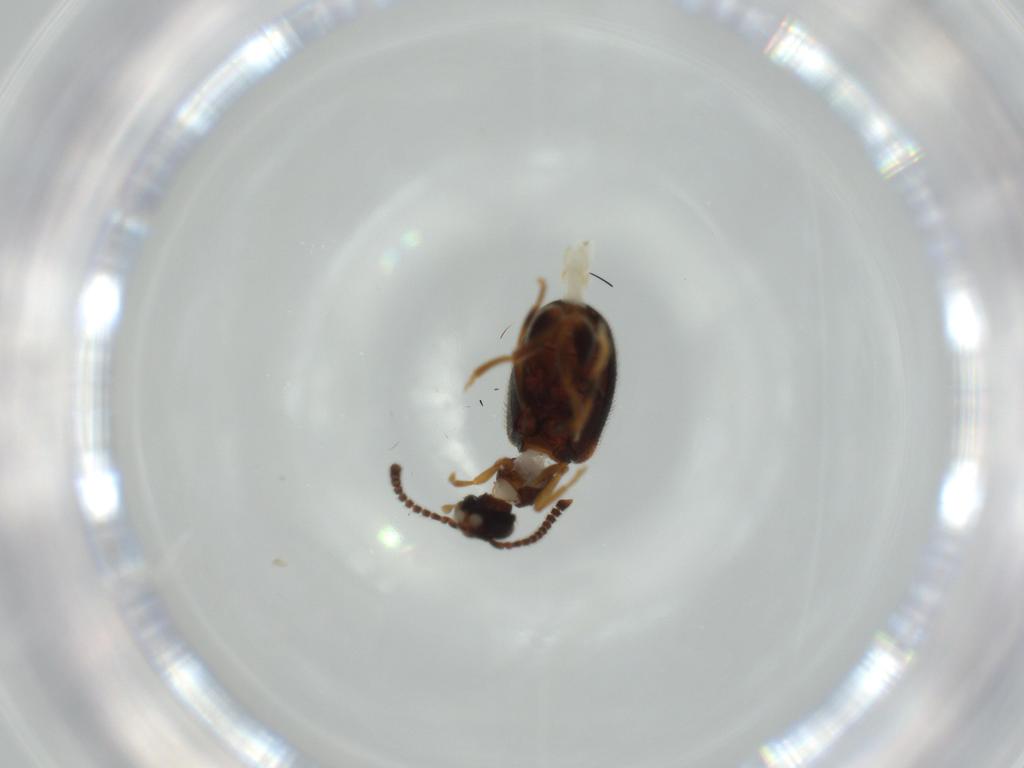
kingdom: Animalia
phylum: Arthropoda
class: Insecta
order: Coleoptera
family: Aderidae
